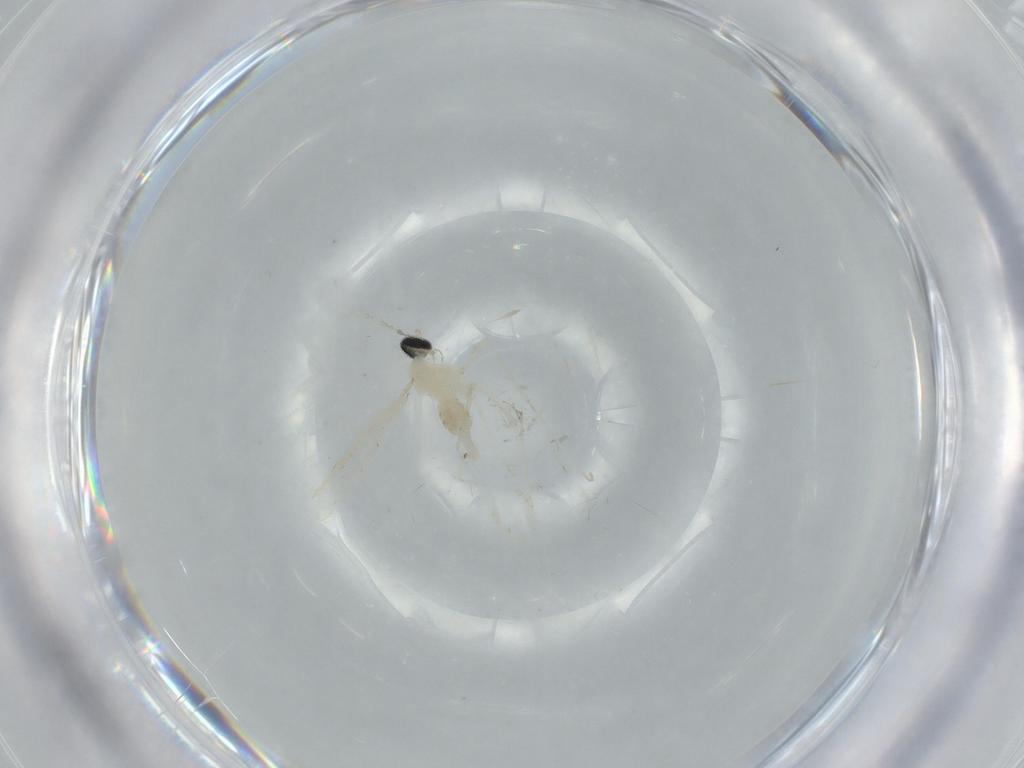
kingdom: Animalia
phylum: Arthropoda
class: Insecta
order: Diptera
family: Cecidomyiidae
